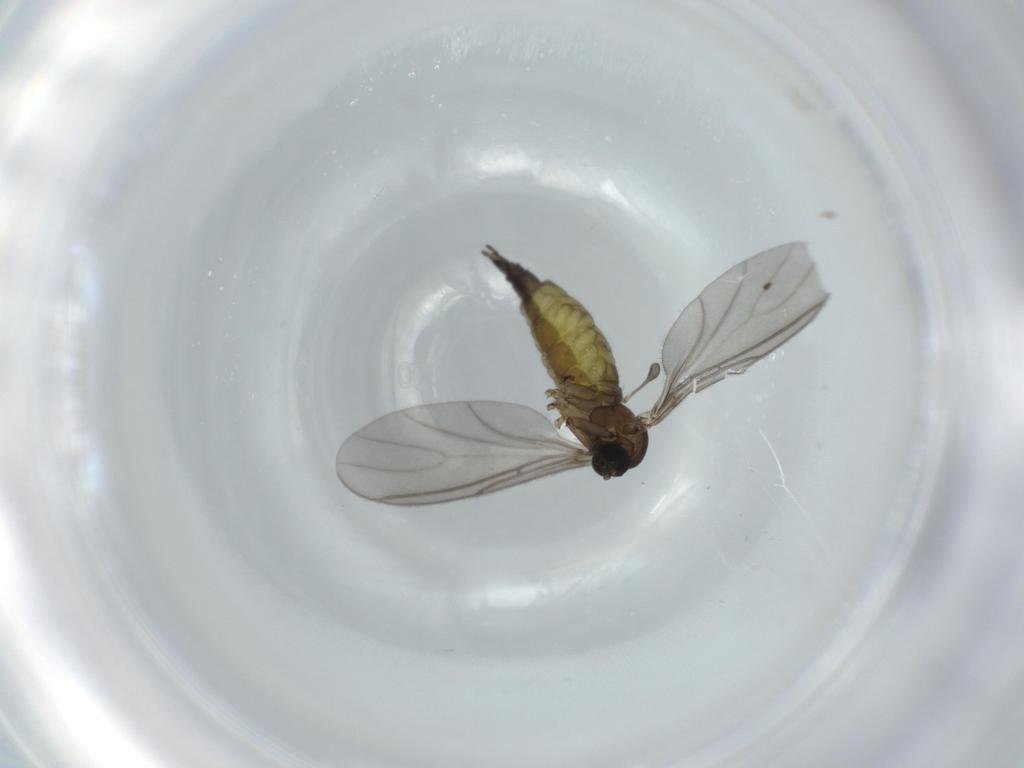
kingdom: Animalia
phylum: Arthropoda
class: Insecta
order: Diptera
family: Sciaridae
